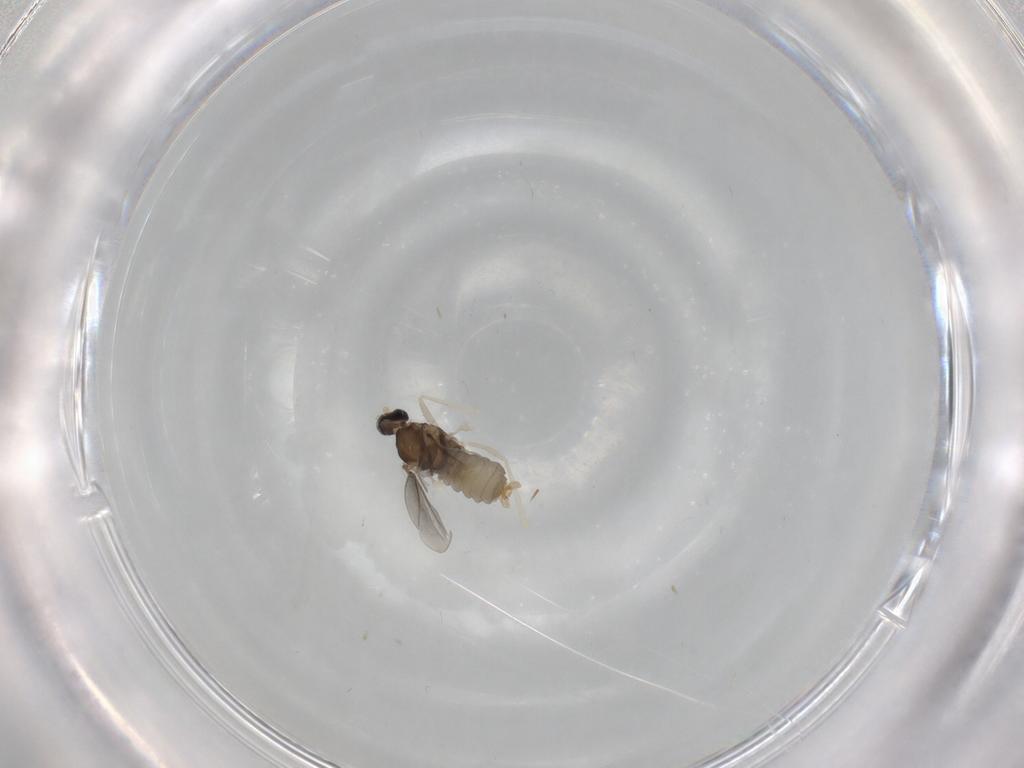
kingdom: Animalia
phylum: Arthropoda
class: Insecta
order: Diptera
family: Cecidomyiidae
